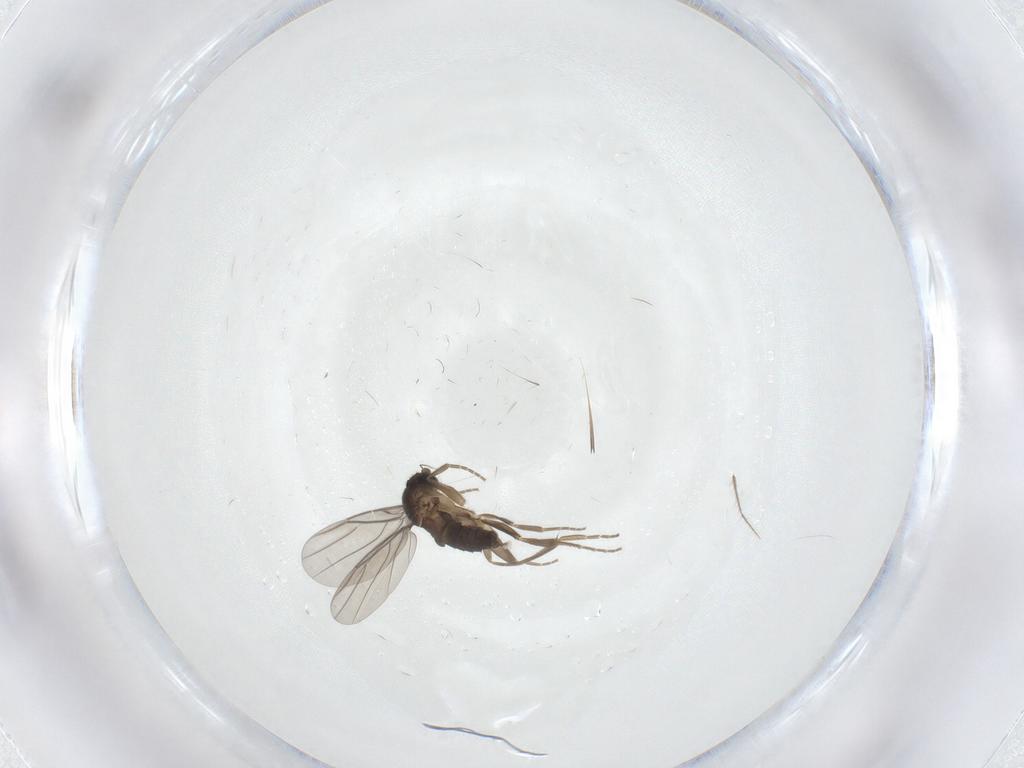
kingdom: Animalia
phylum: Arthropoda
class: Insecta
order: Diptera
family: Phoridae
